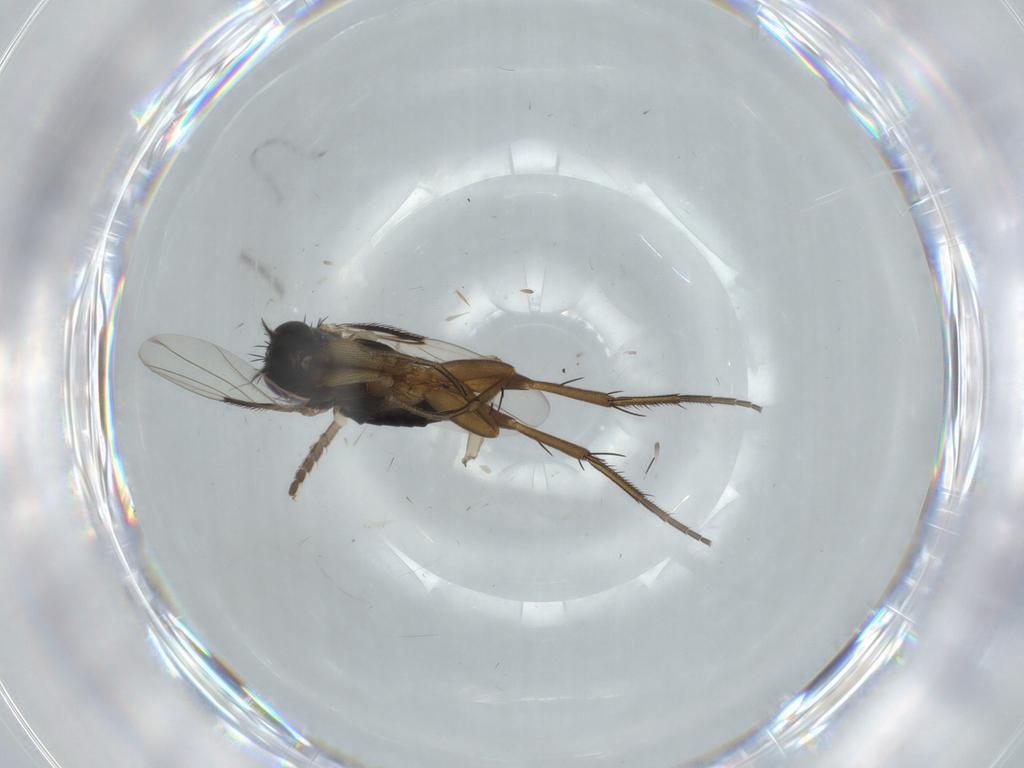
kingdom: Animalia
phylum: Arthropoda
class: Insecta
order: Diptera
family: Phoridae
